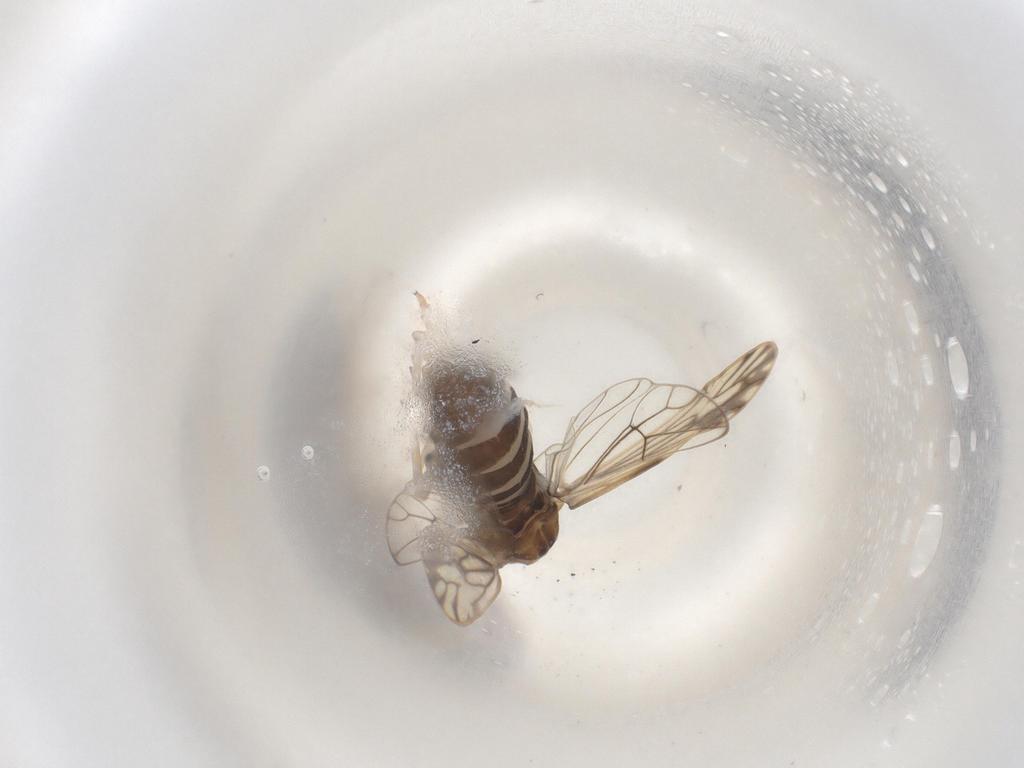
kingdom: Animalia
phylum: Arthropoda
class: Insecta
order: Hemiptera
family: Delphacidae
